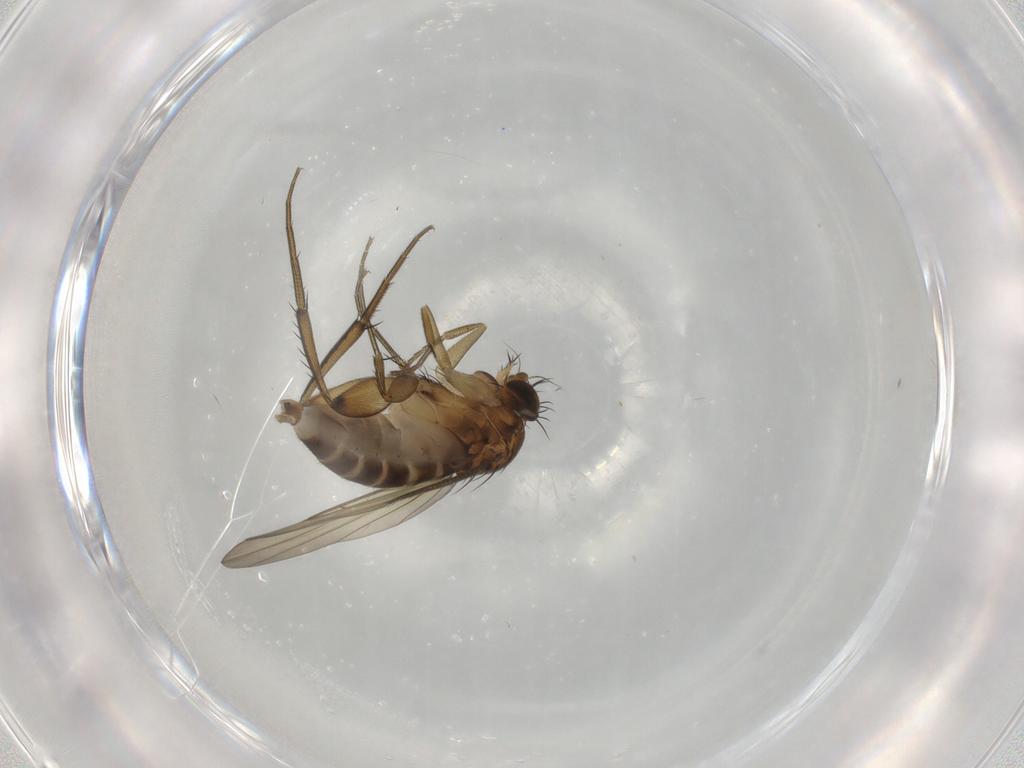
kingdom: Animalia
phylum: Arthropoda
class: Insecta
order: Diptera
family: Phoridae
